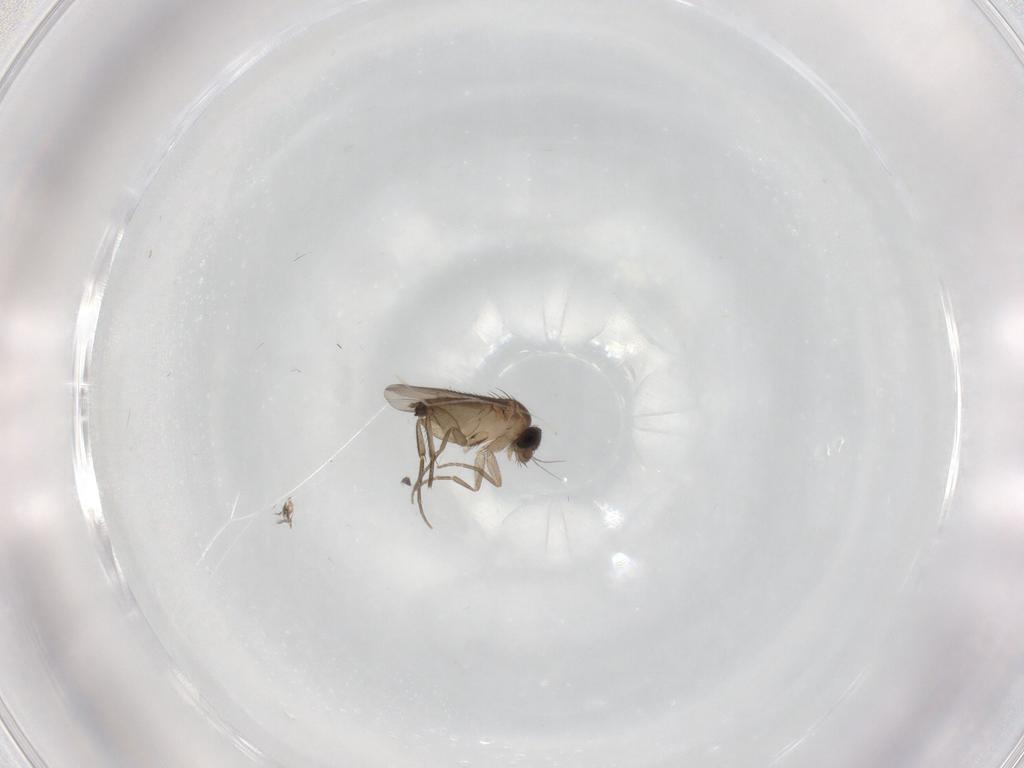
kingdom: Animalia
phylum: Arthropoda
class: Insecta
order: Diptera
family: Phoridae
